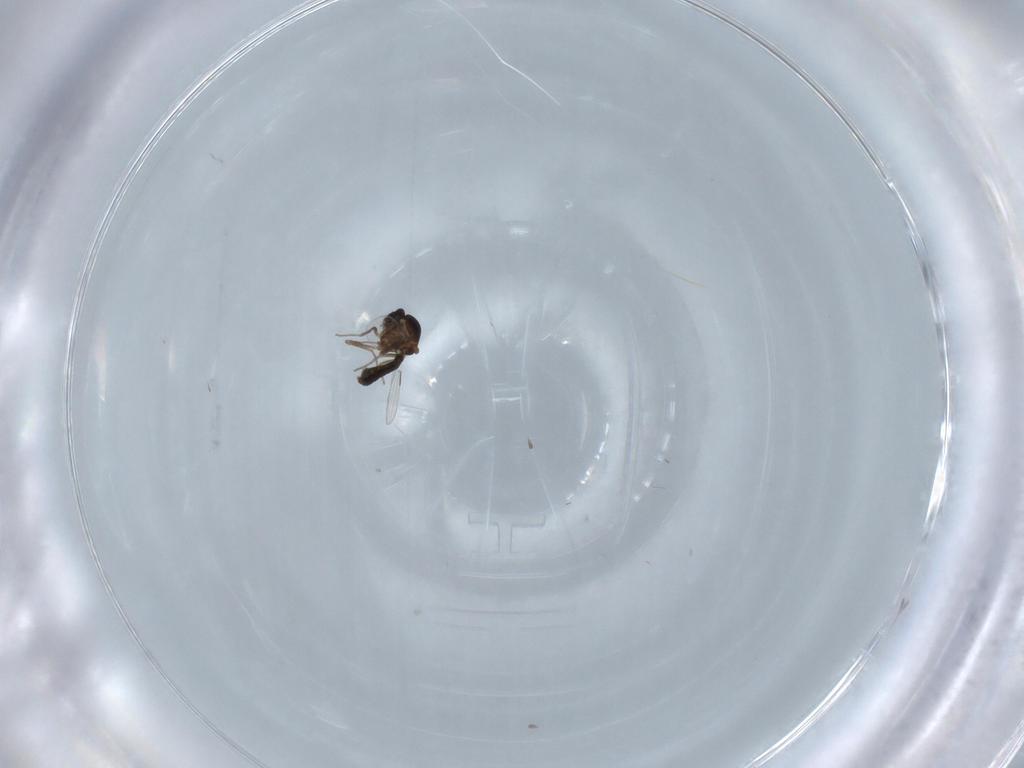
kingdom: Animalia
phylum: Arthropoda
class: Insecta
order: Diptera
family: Ceratopogonidae
